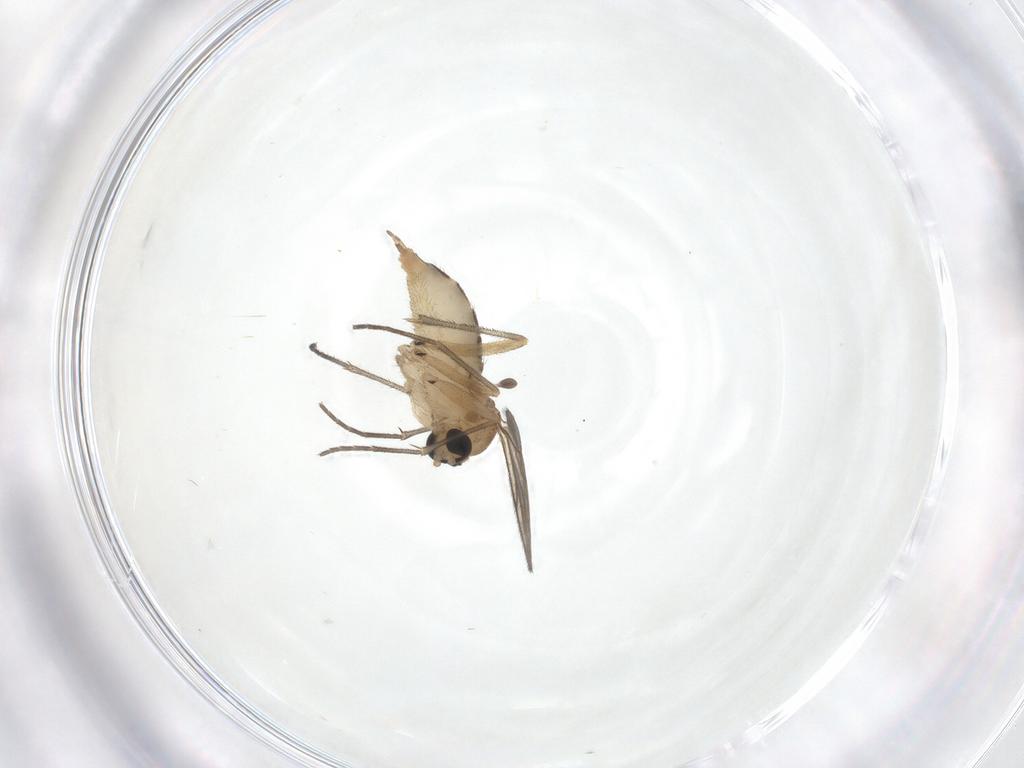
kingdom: Animalia
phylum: Arthropoda
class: Insecta
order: Diptera
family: Sciaridae
